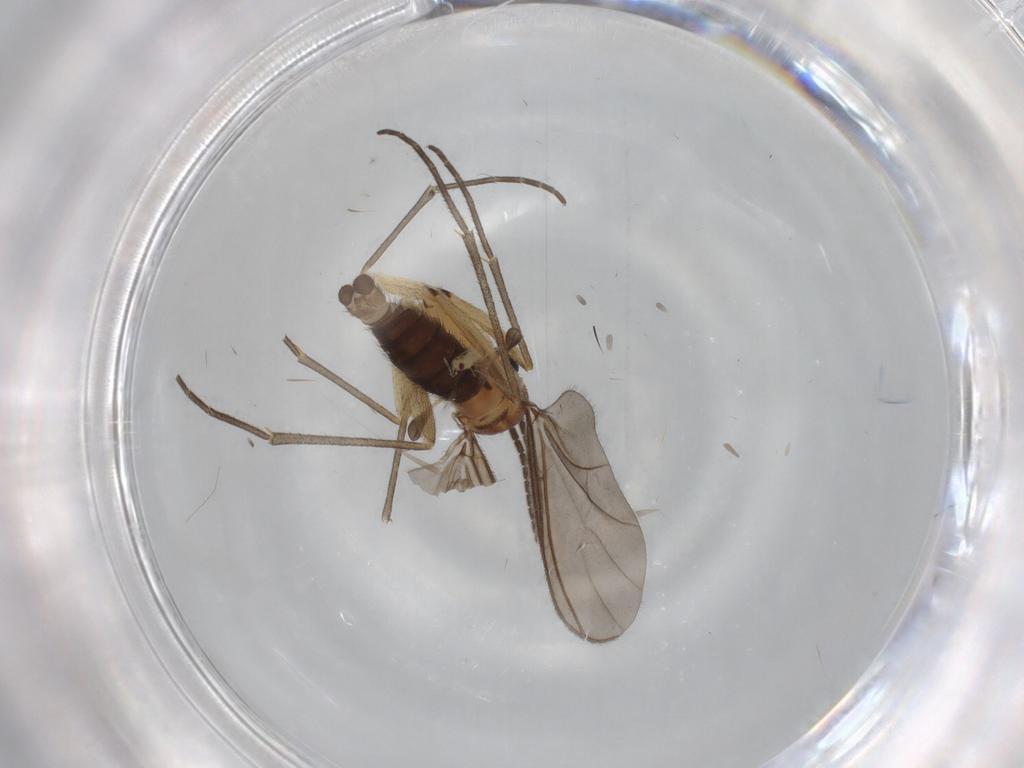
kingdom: Animalia
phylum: Arthropoda
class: Insecta
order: Diptera
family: Sciaridae
